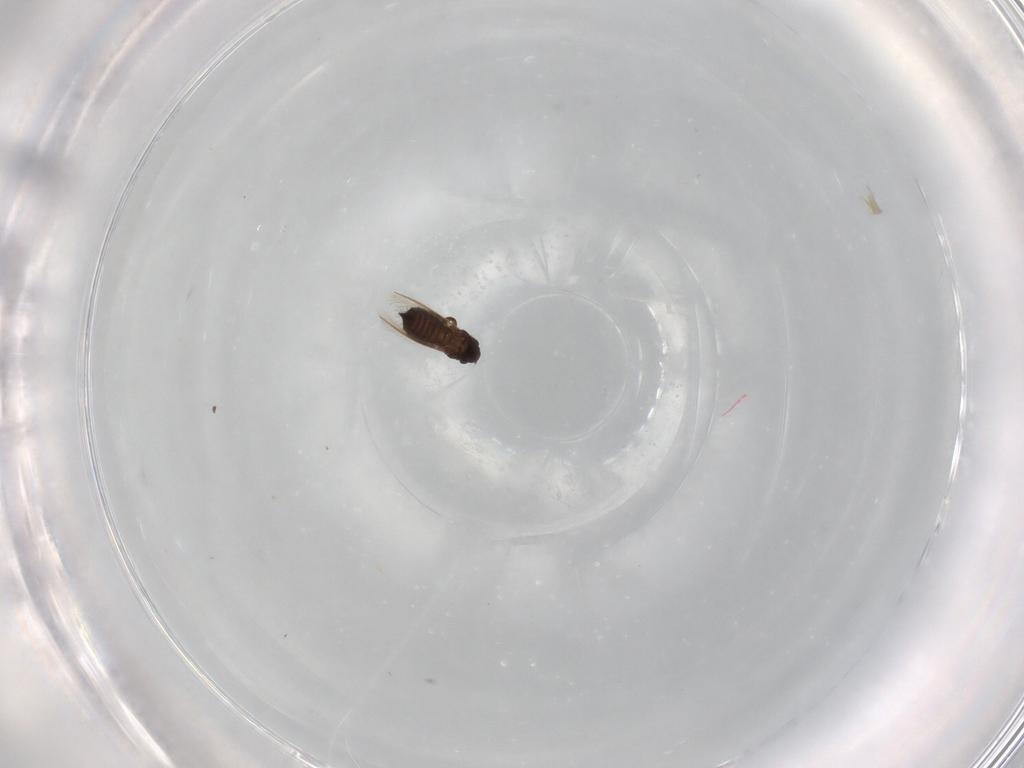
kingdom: Animalia
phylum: Arthropoda
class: Insecta
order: Diptera
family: Muscidae
